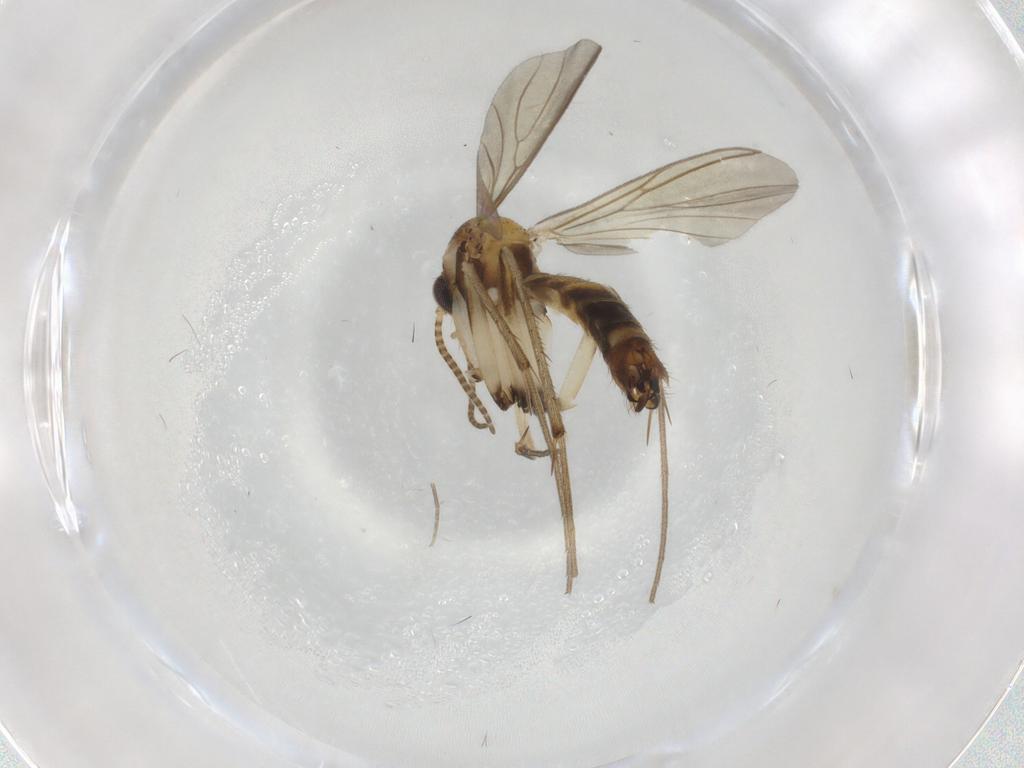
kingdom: Animalia
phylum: Arthropoda
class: Insecta
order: Diptera
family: Mycetophilidae
